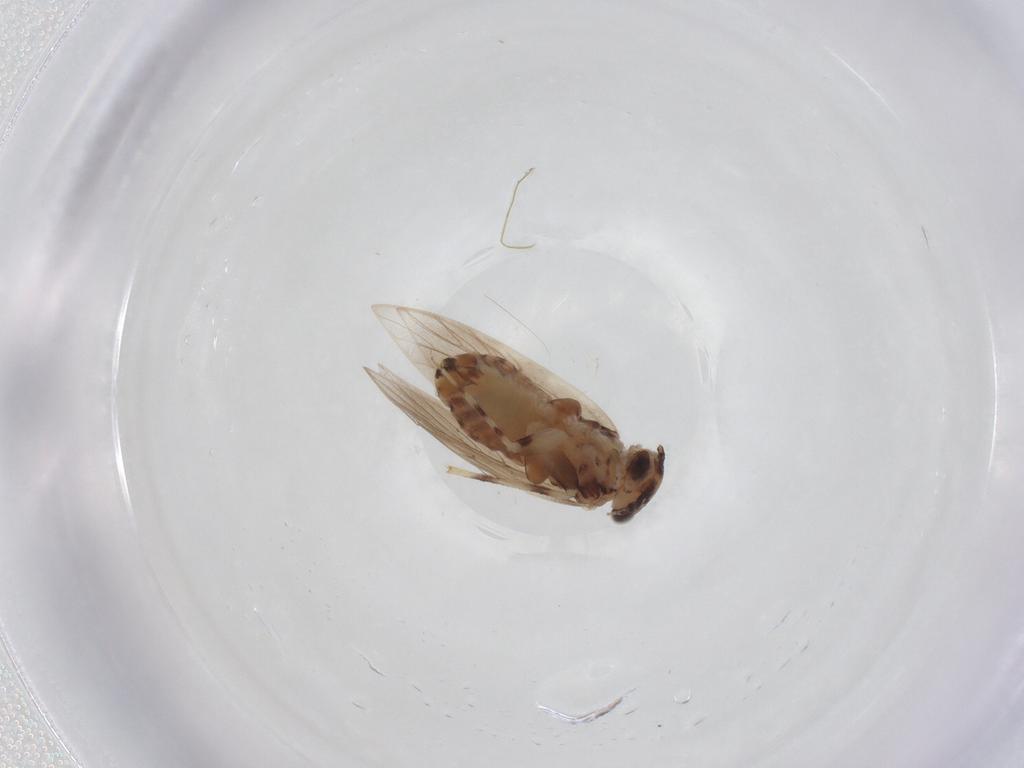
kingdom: Animalia
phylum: Arthropoda
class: Insecta
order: Psocodea
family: Lepidopsocidae
